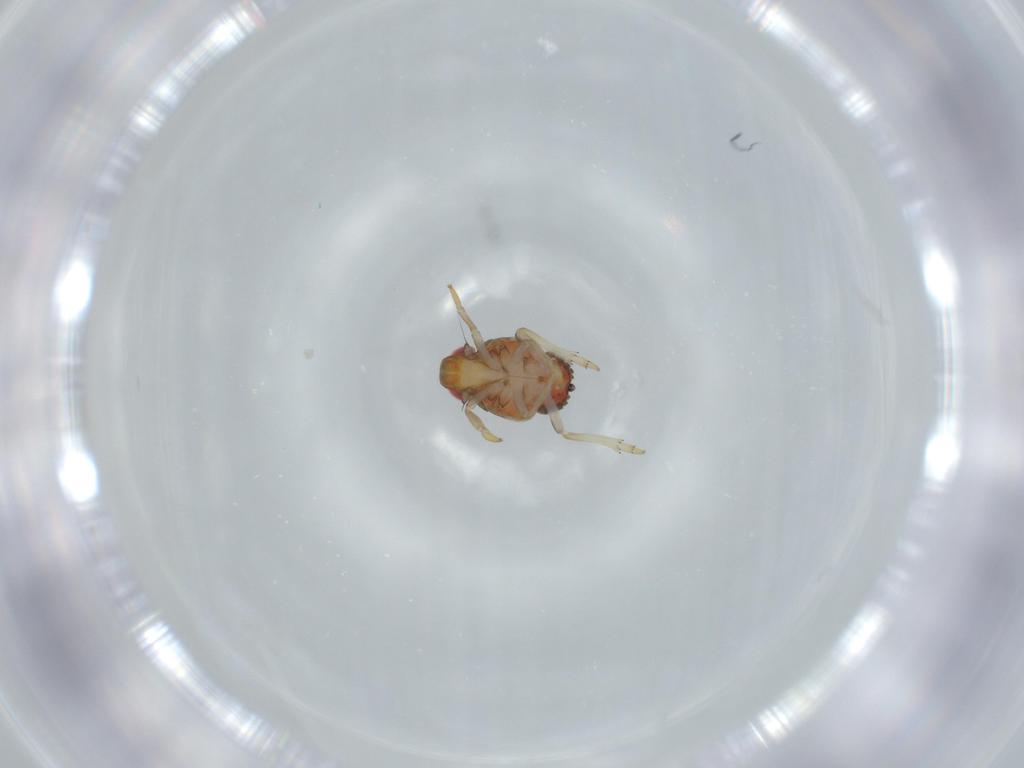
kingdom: Animalia
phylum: Arthropoda
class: Insecta
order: Hemiptera
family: Issidae
